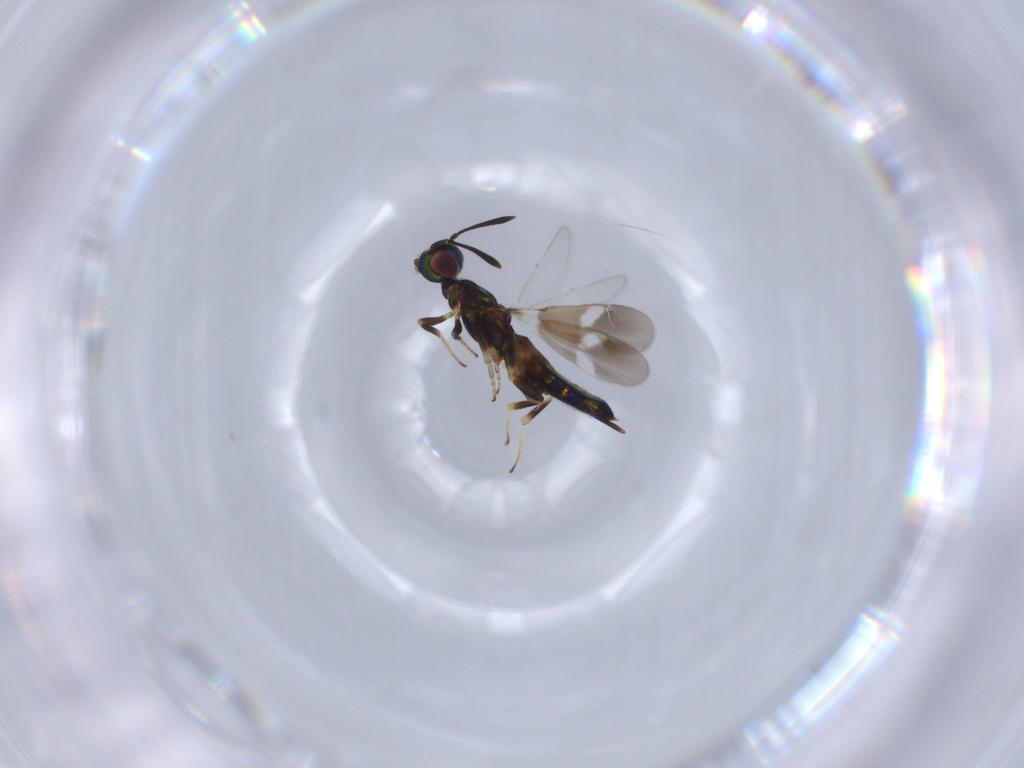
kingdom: Animalia
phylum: Arthropoda
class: Insecta
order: Hymenoptera
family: Eupelmidae
